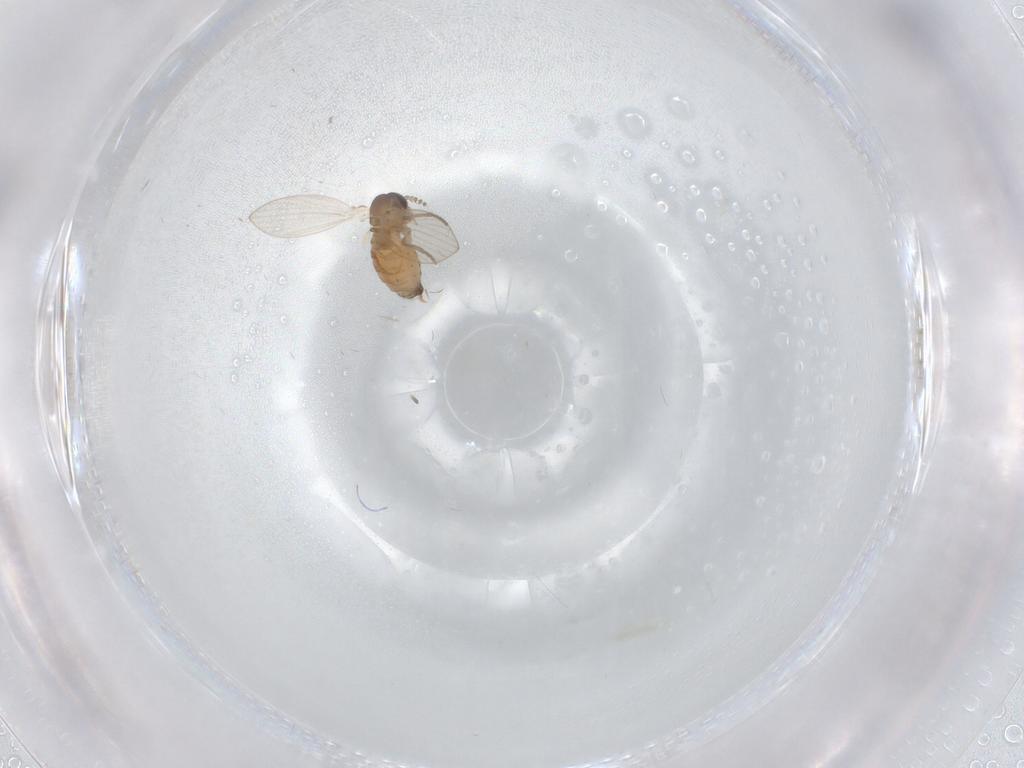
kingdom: Animalia
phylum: Arthropoda
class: Insecta
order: Diptera
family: Psychodidae
